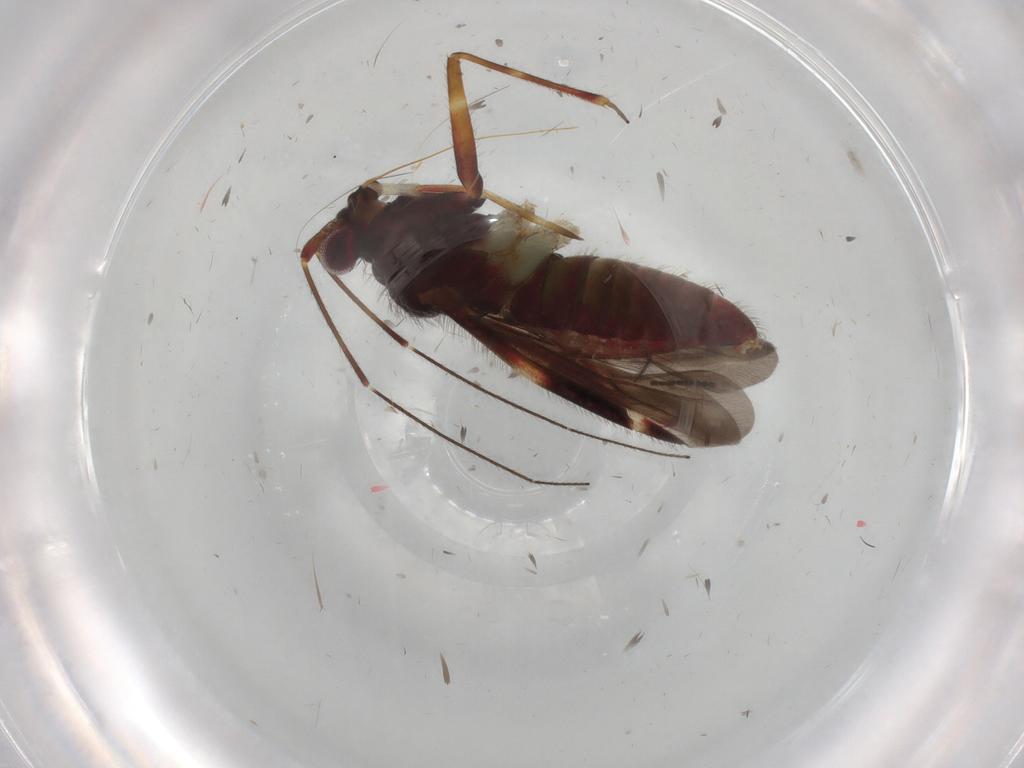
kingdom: Animalia
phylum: Arthropoda
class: Insecta
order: Hemiptera
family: Miridae
